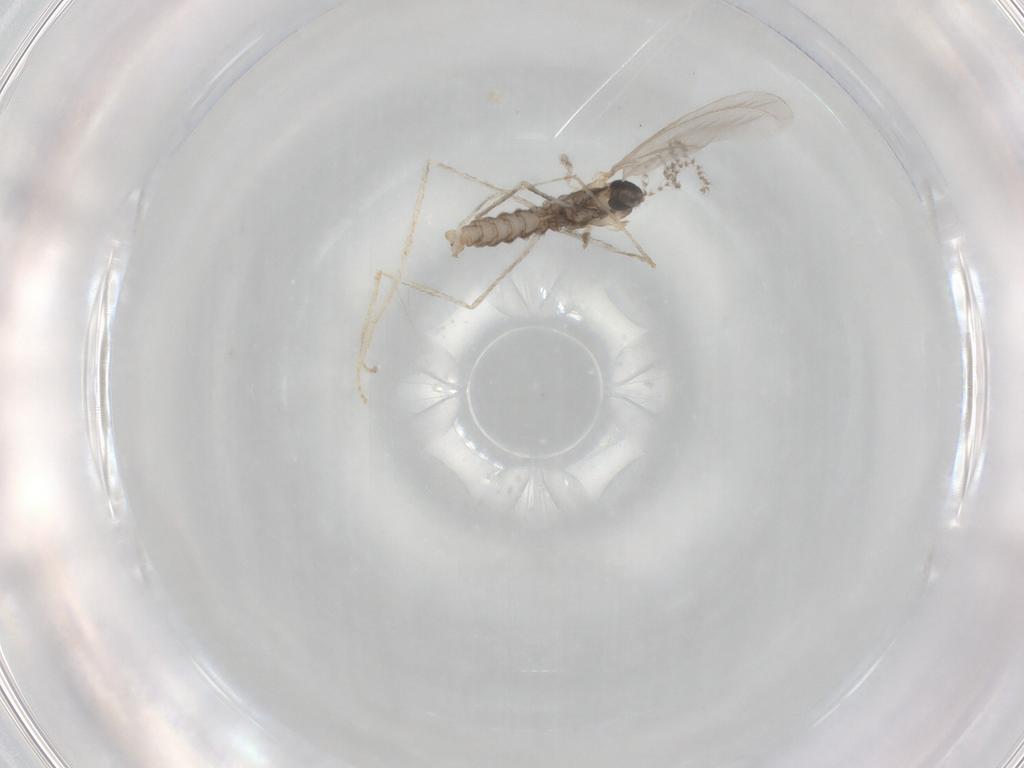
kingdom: Animalia
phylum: Arthropoda
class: Insecta
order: Diptera
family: Cecidomyiidae
